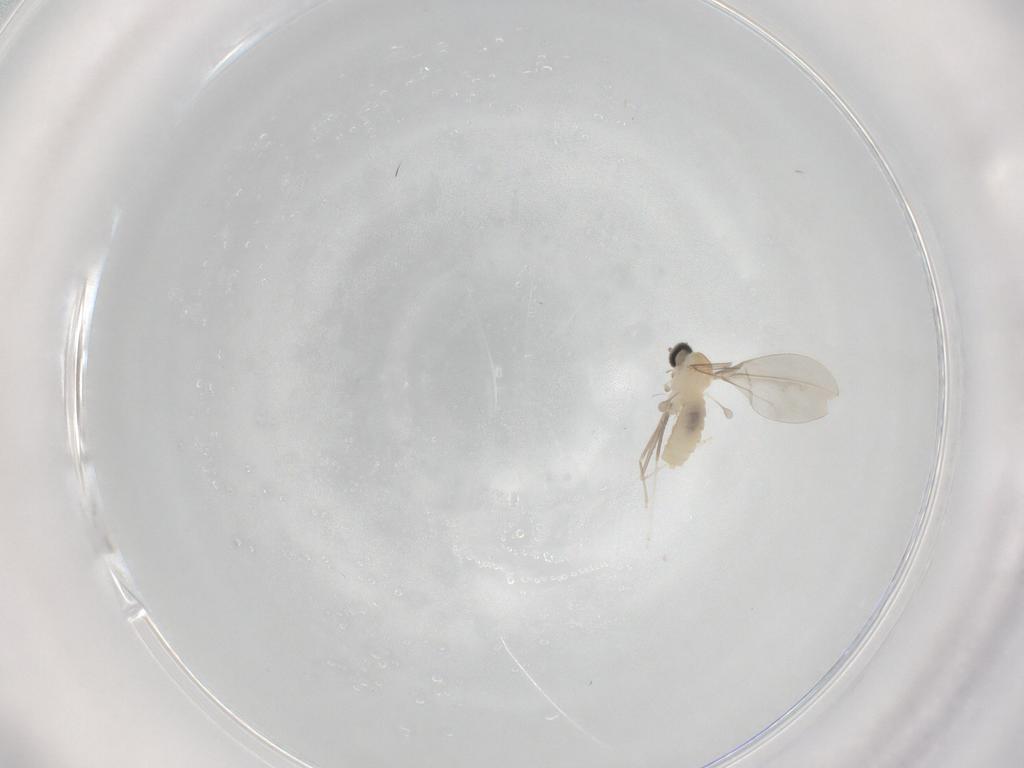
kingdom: Animalia
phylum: Arthropoda
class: Insecta
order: Diptera
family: Cecidomyiidae
